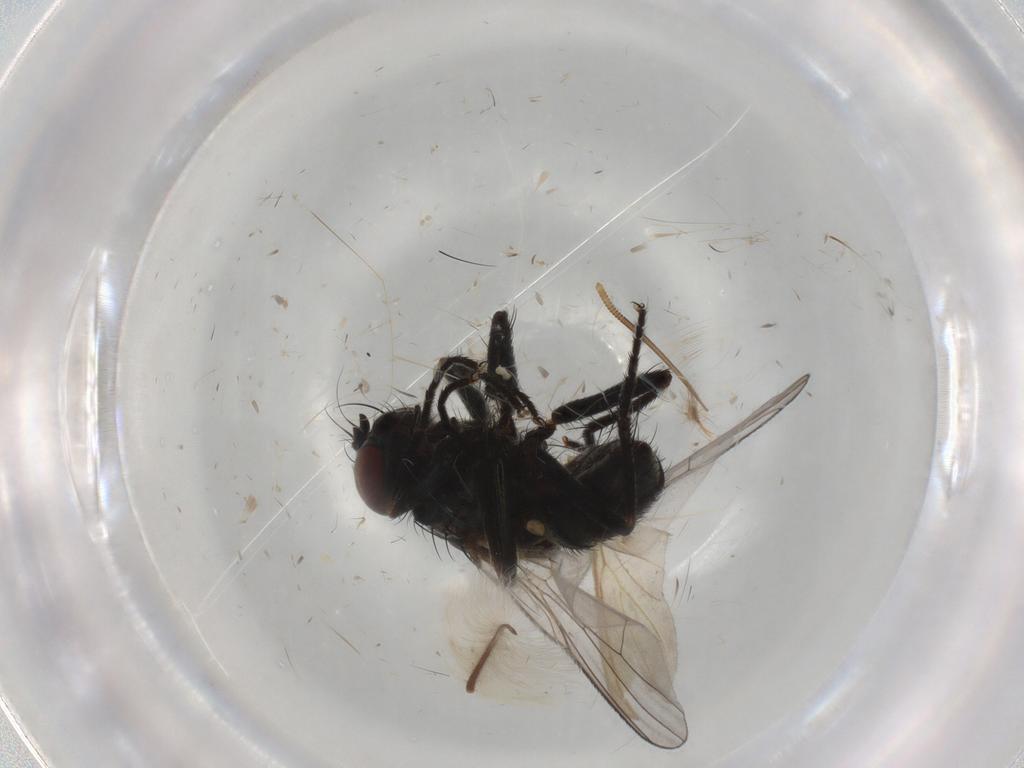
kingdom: Animalia
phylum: Arthropoda
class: Insecta
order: Diptera
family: Muscidae
